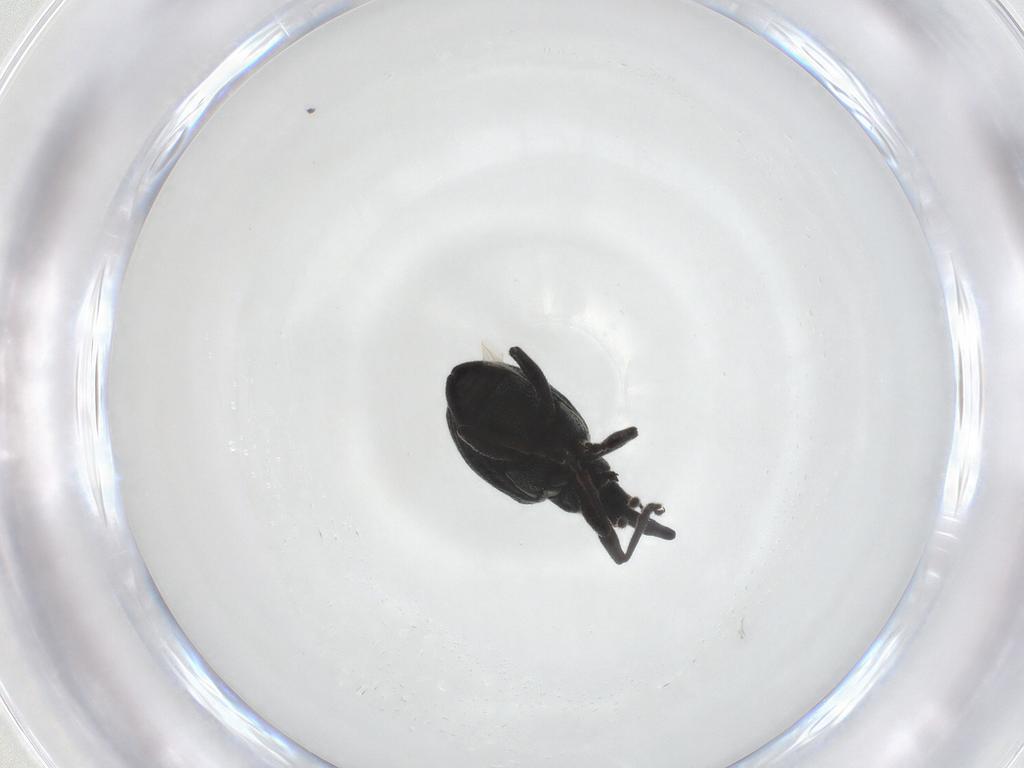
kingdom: Animalia
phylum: Arthropoda
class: Insecta
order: Coleoptera
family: Brentidae
